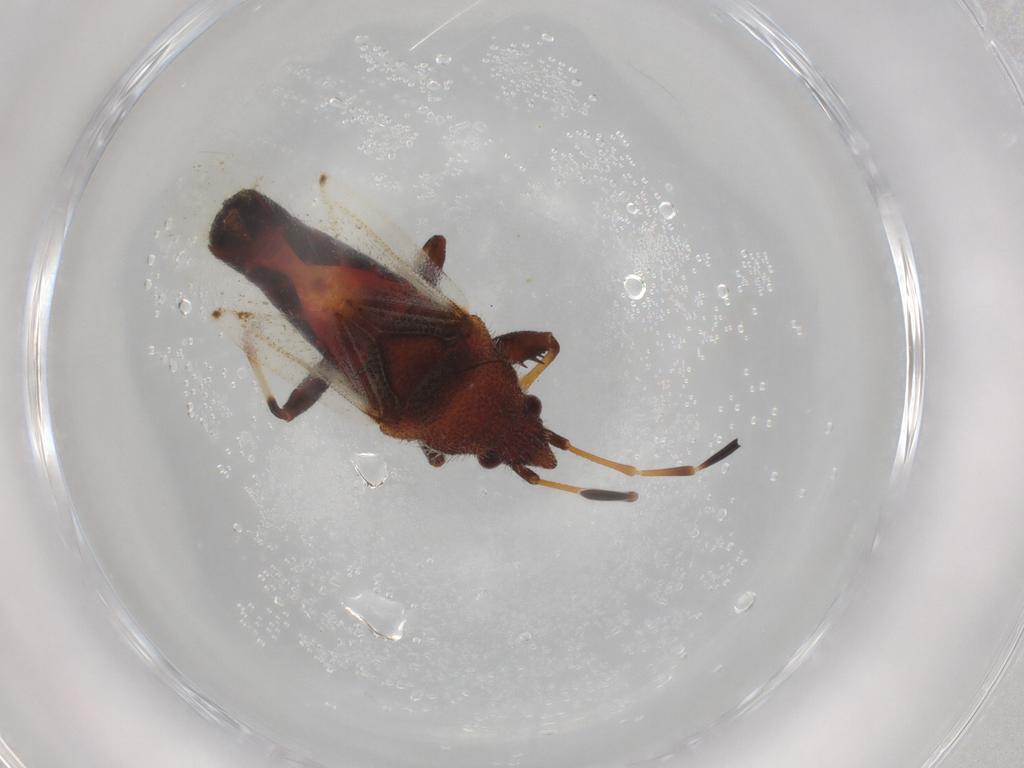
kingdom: Animalia
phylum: Arthropoda
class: Insecta
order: Hemiptera
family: Oxycarenidae
